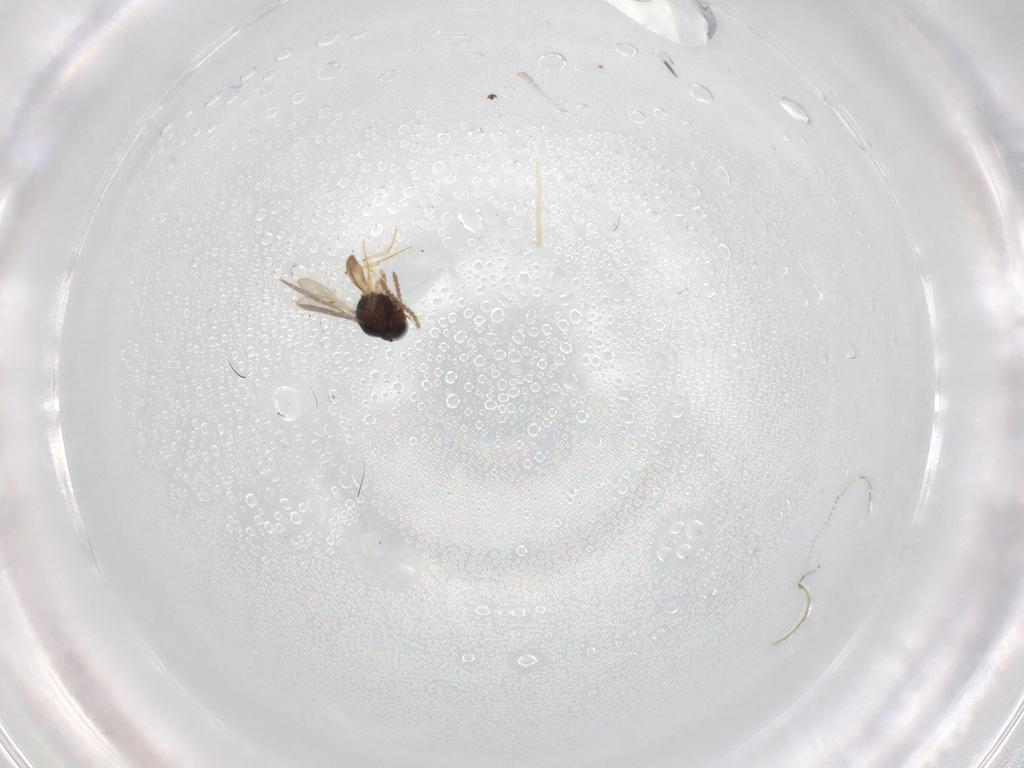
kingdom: Animalia
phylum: Arthropoda
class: Insecta
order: Hymenoptera
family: Scelionidae
